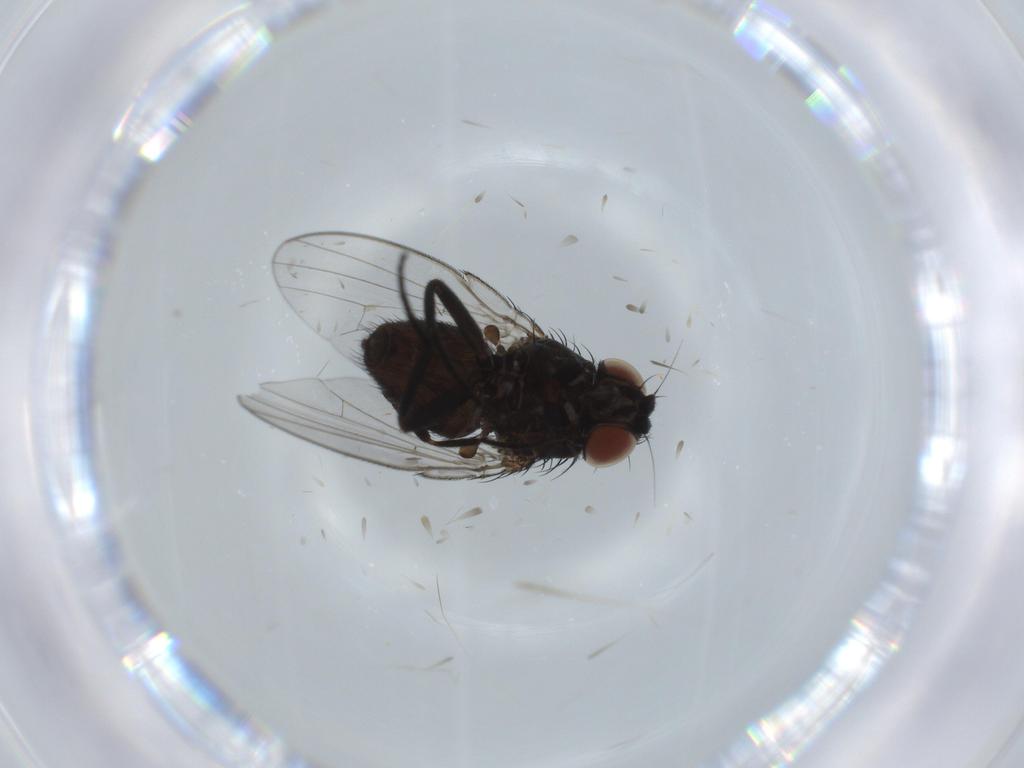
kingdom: Animalia
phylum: Arthropoda
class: Insecta
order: Diptera
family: Milichiidae
